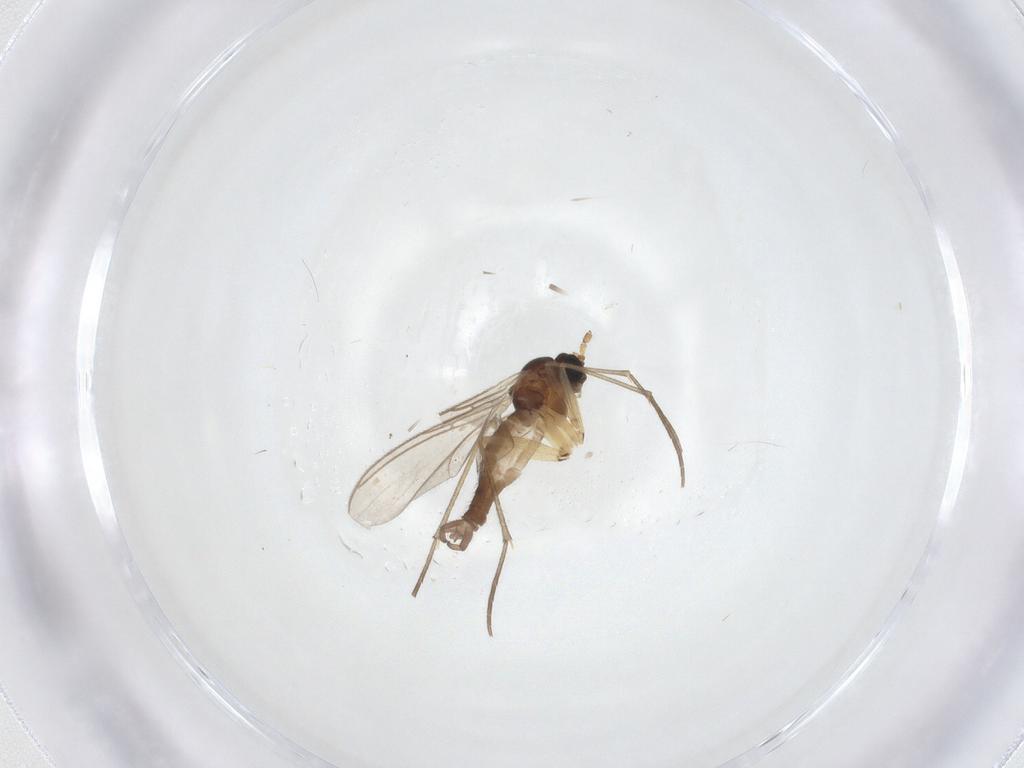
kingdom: Animalia
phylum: Arthropoda
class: Insecta
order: Diptera
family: Sciaridae
